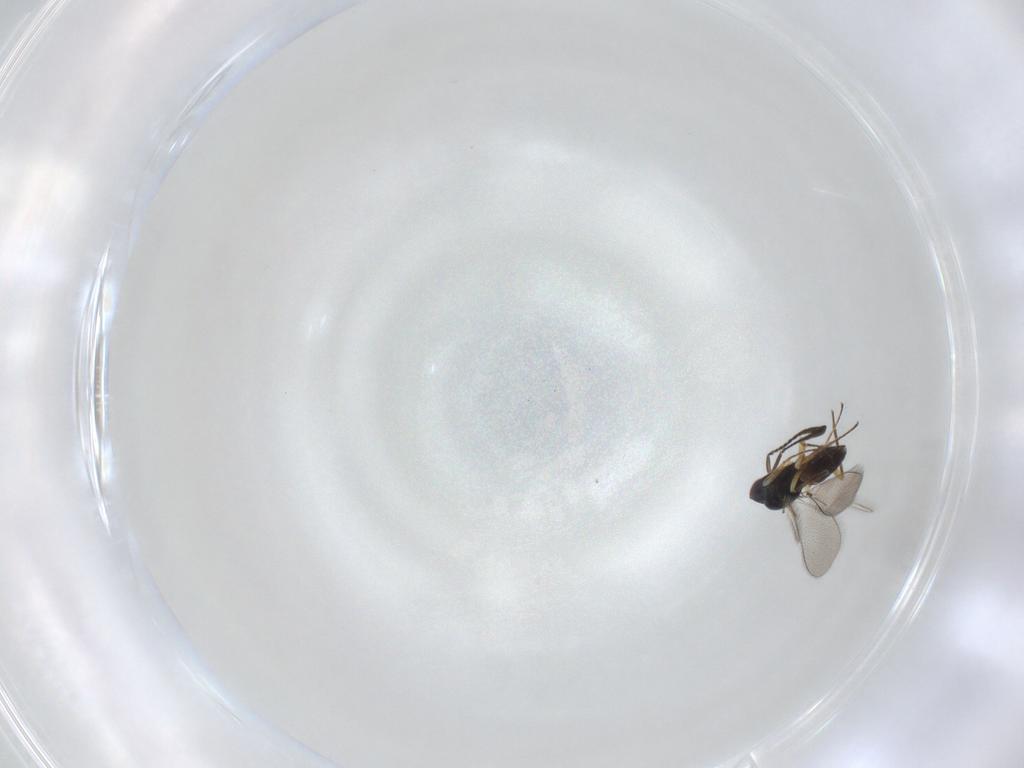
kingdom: Animalia
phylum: Arthropoda
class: Insecta
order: Hymenoptera
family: Mymaridae
